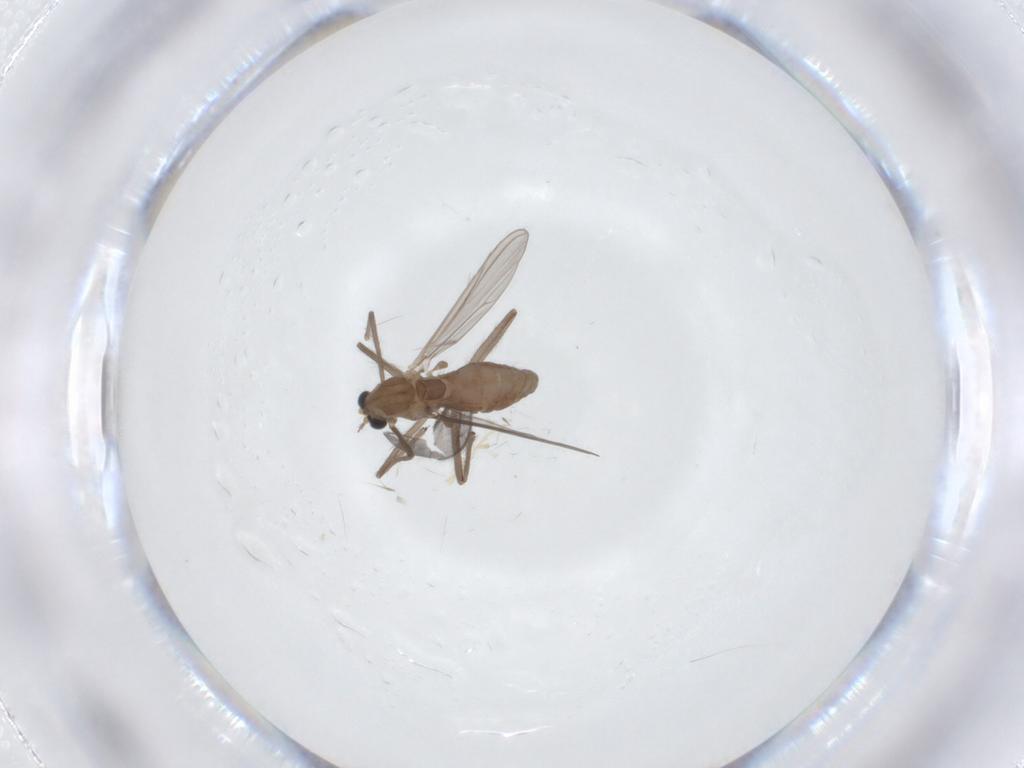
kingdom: Animalia
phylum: Arthropoda
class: Insecta
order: Diptera
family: Chironomidae
